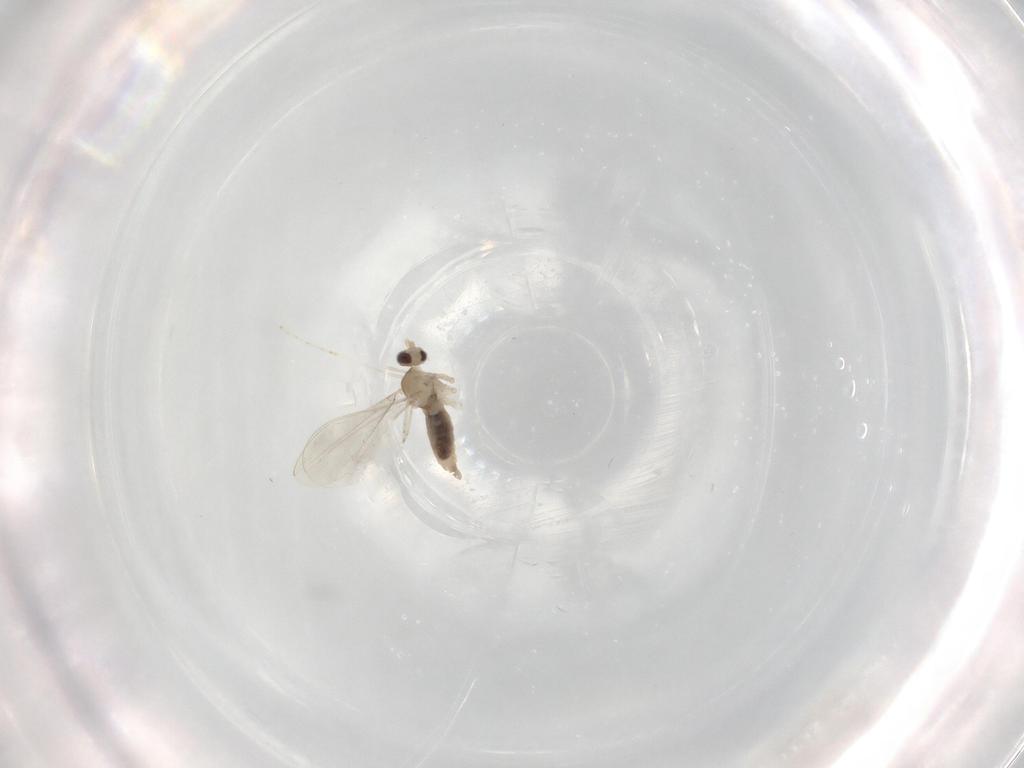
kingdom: Animalia
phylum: Arthropoda
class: Insecta
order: Diptera
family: Cecidomyiidae
